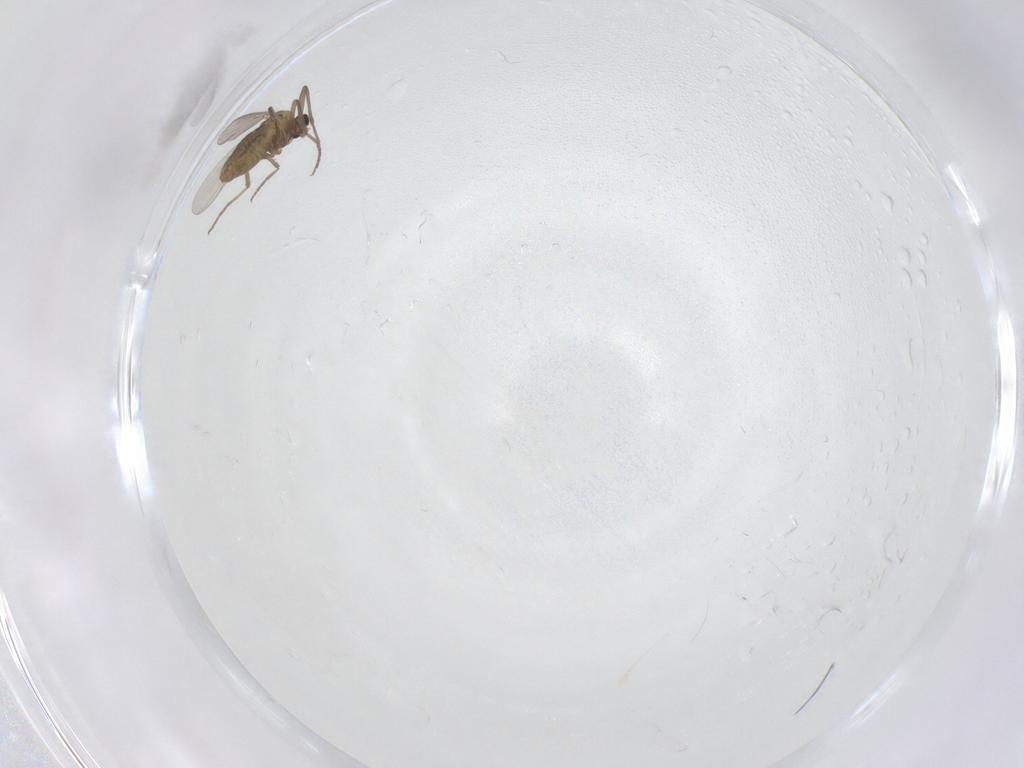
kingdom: Animalia
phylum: Arthropoda
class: Insecta
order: Diptera
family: Chironomidae
